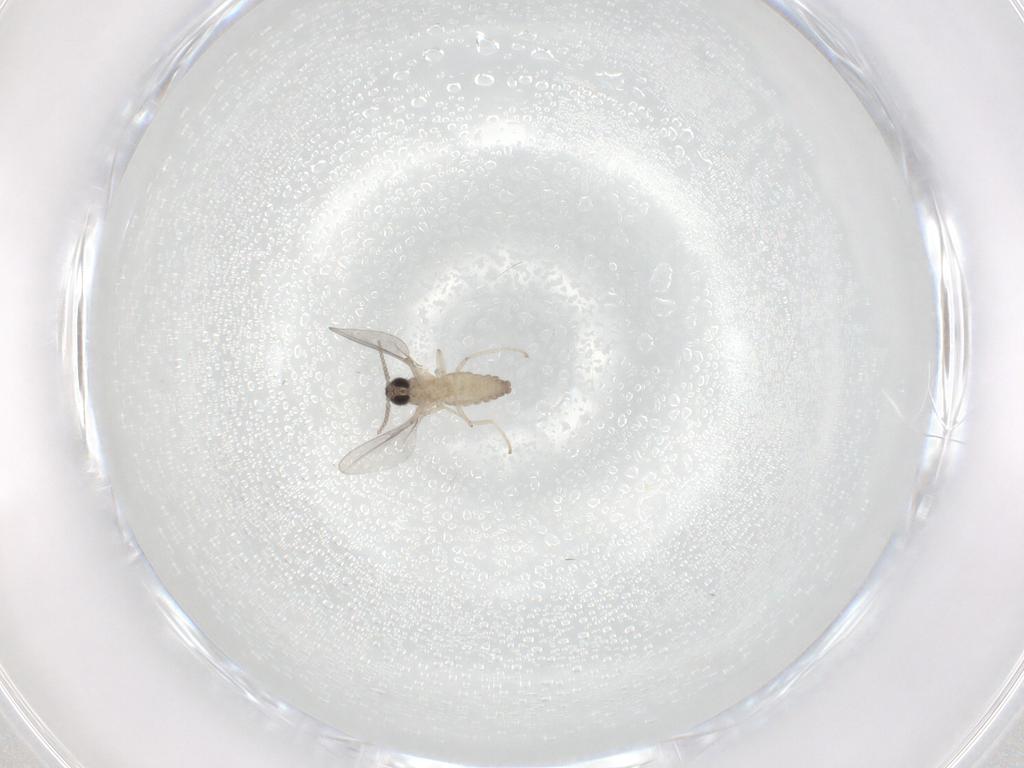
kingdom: Animalia
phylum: Arthropoda
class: Insecta
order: Diptera
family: Cecidomyiidae
